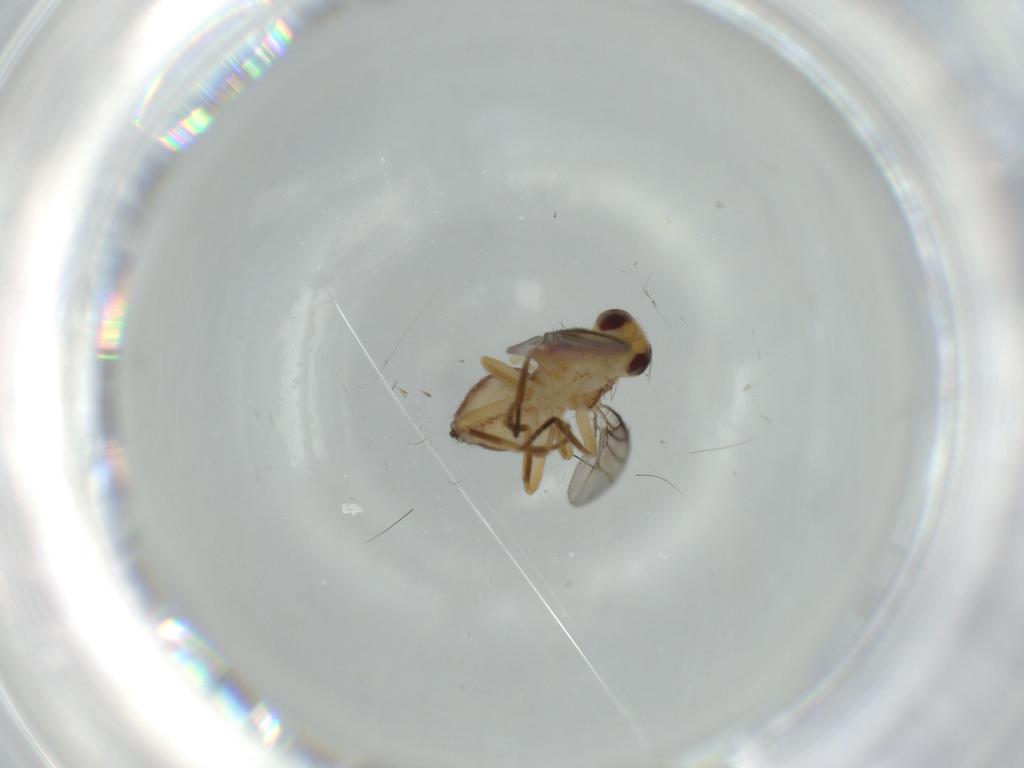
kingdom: Animalia
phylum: Arthropoda
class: Insecta
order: Diptera
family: Chloropidae
